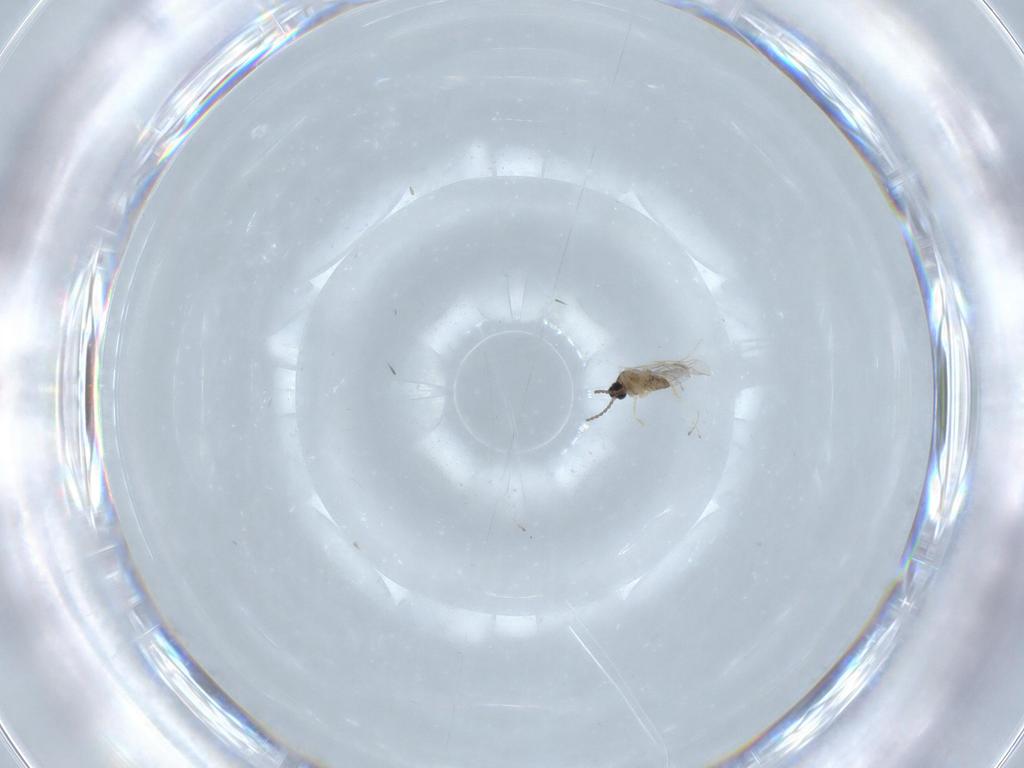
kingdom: Animalia
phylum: Arthropoda
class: Insecta
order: Diptera
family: Cecidomyiidae
